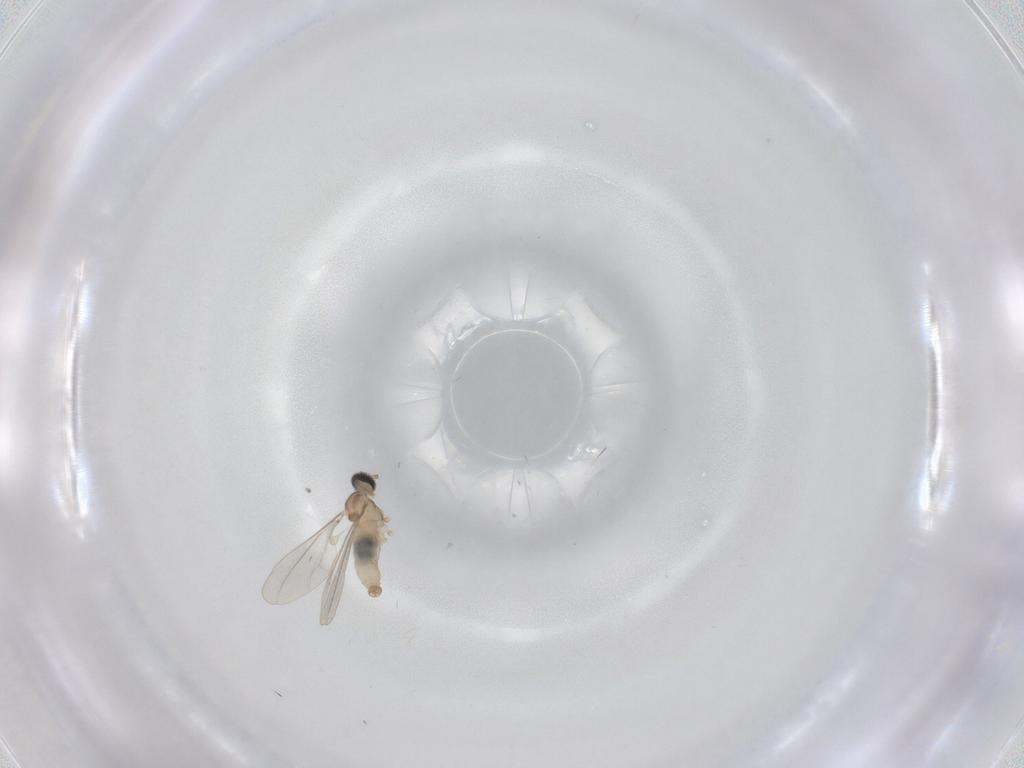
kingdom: Animalia
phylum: Arthropoda
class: Insecta
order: Diptera
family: Cecidomyiidae
